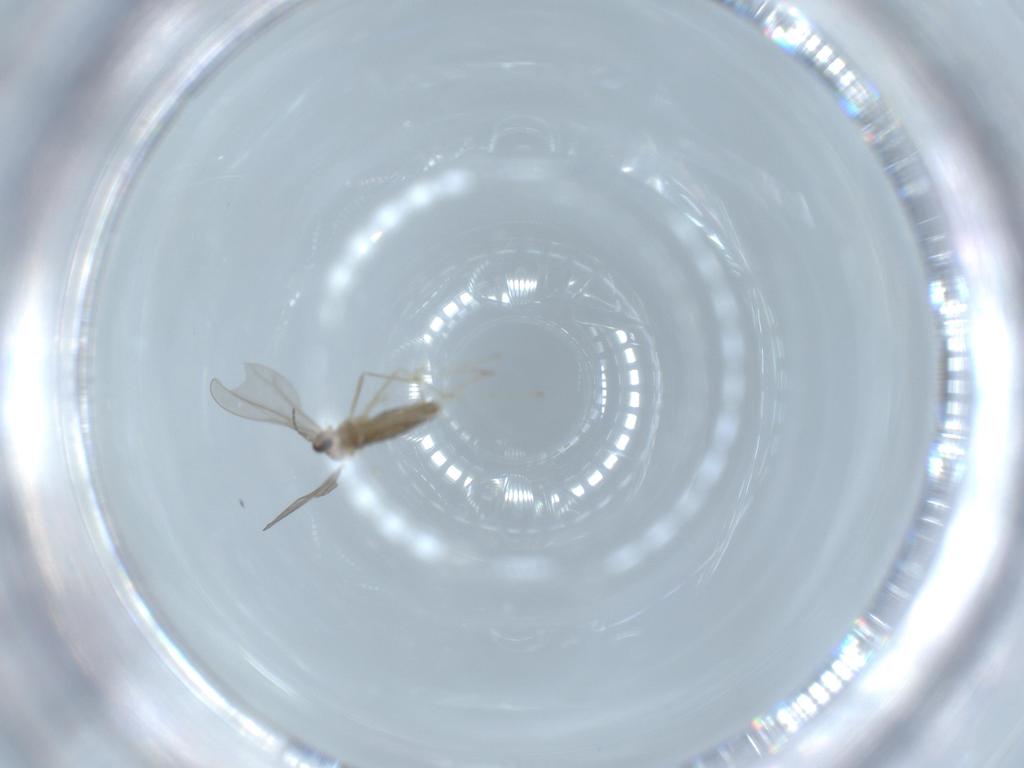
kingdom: Animalia
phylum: Arthropoda
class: Insecta
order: Diptera
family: Cecidomyiidae
